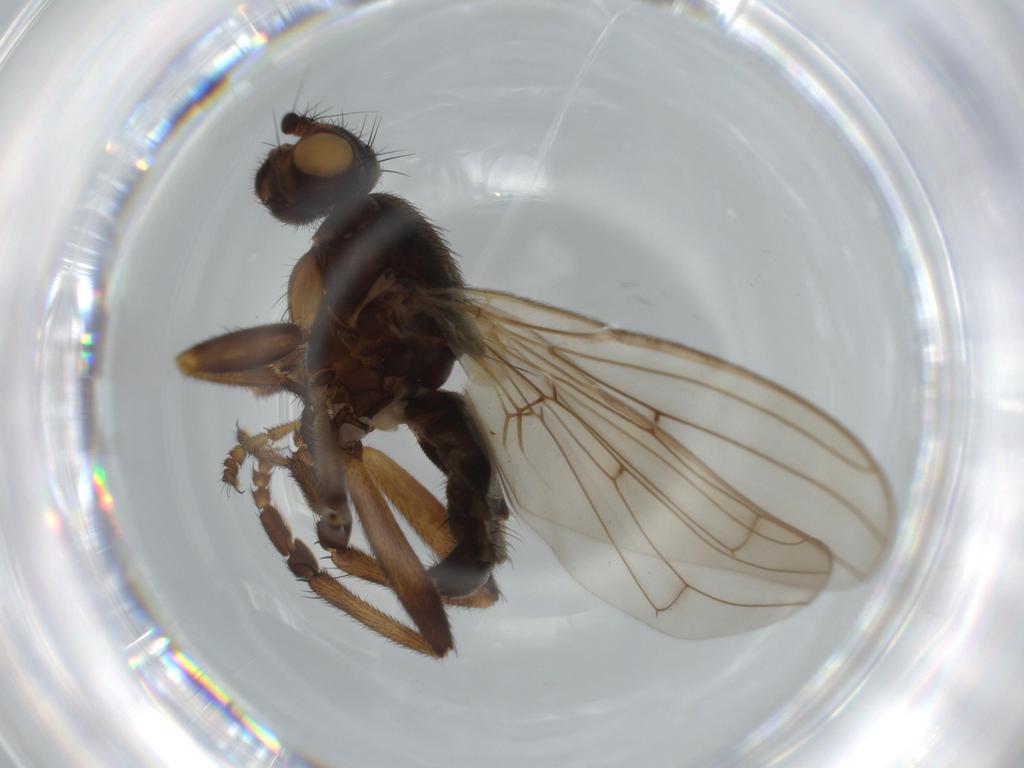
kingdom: Animalia
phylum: Arthropoda
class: Insecta
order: Diptera
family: Sphaeroceridae
